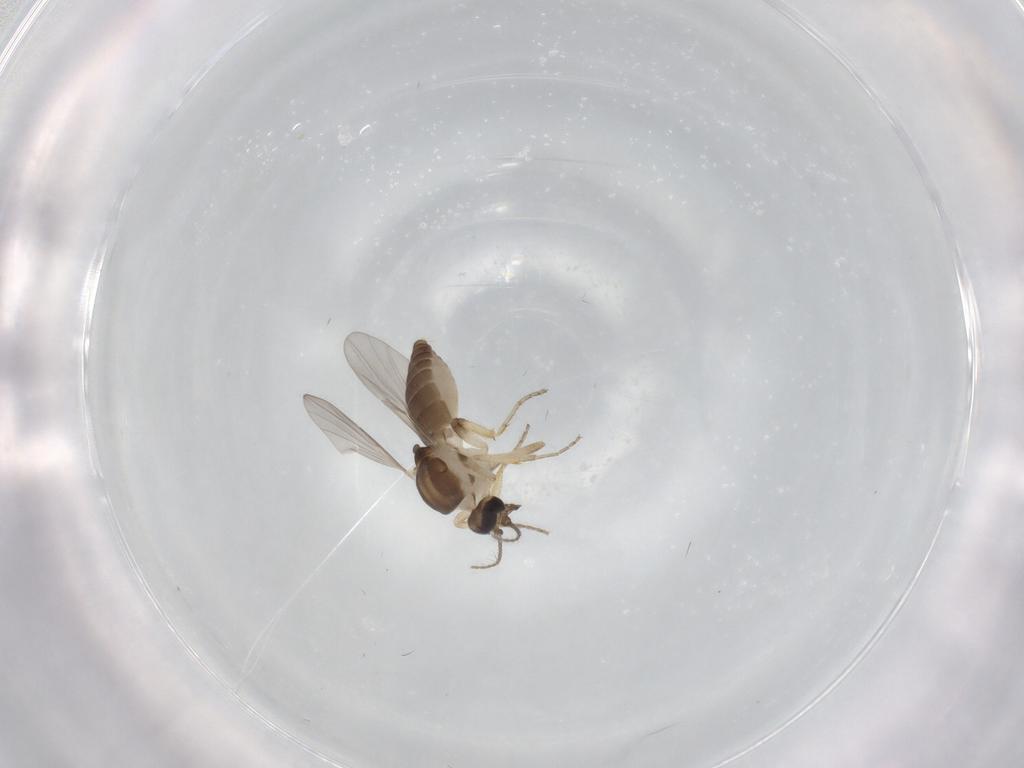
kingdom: Animalia
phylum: Arthropoda
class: Insecta
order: Diptera
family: Ceratopogonidae
